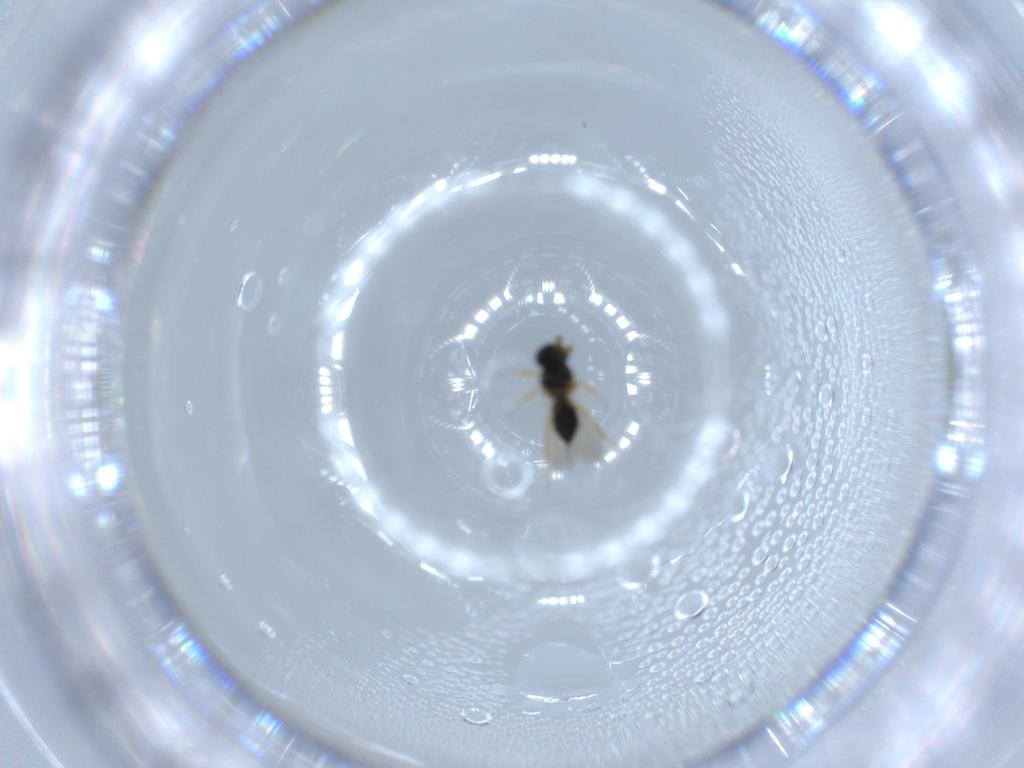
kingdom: Animalia
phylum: Arthropoda
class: Insecta
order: Hymenoptera
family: Scelionidae
